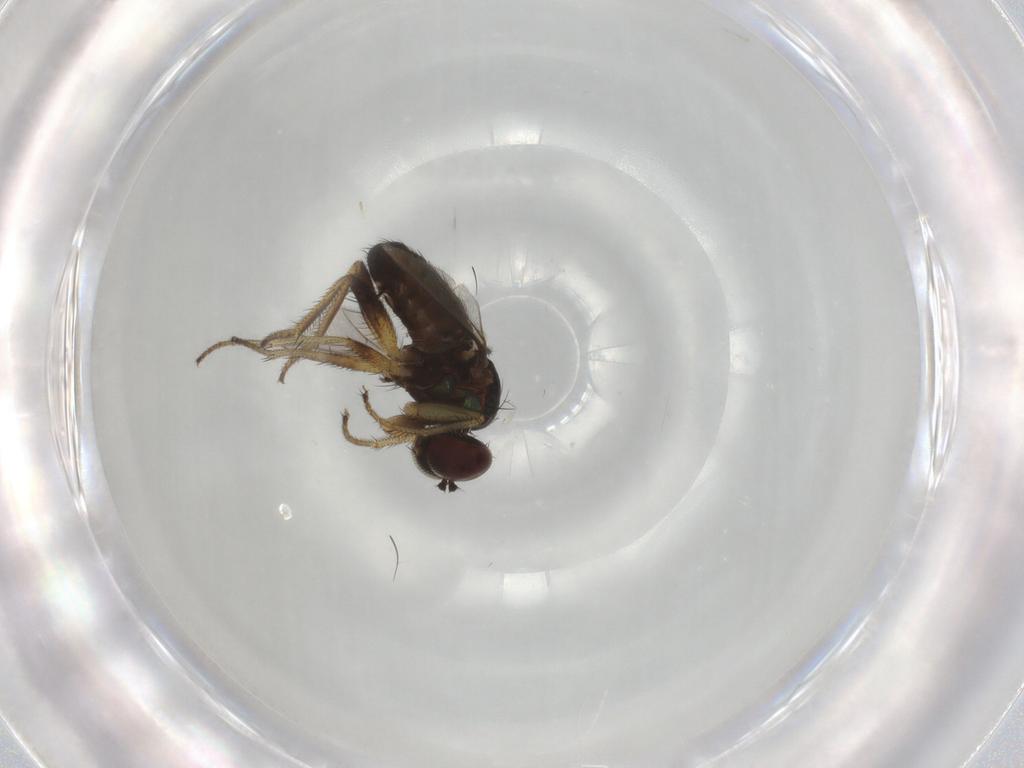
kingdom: Animalia
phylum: Arthropoda
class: Insecta
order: Diptera
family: Dolichopodidae
